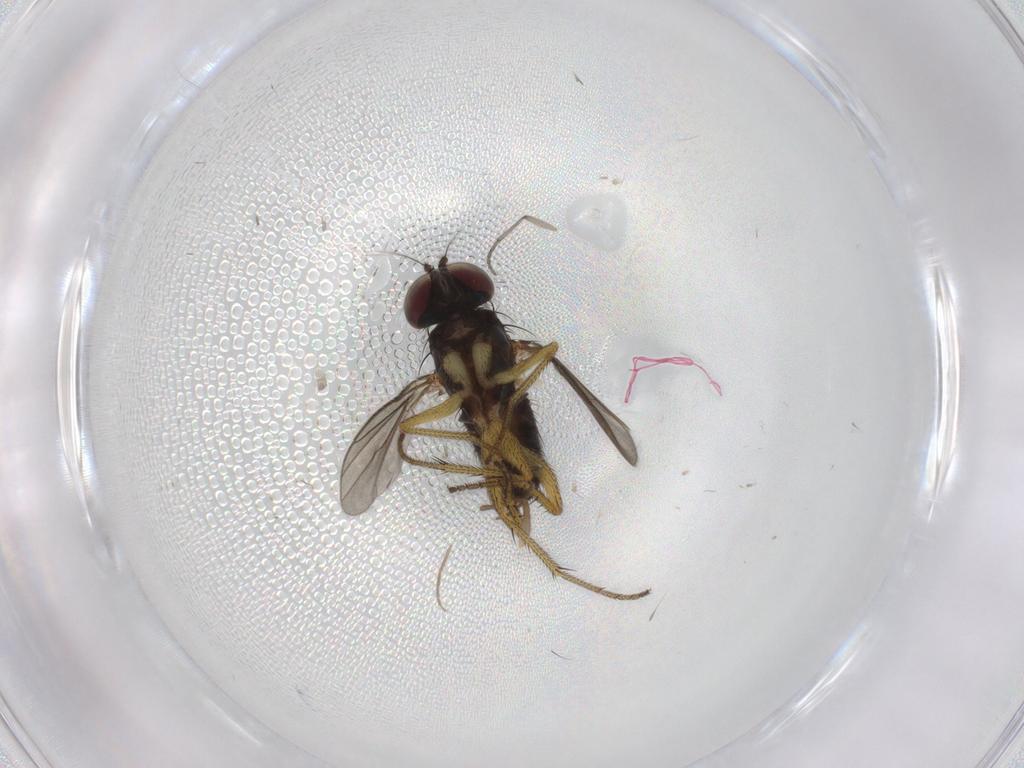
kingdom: Animalia
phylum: Arthropoda
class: Insecta
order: Diptera
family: Sciaridae
